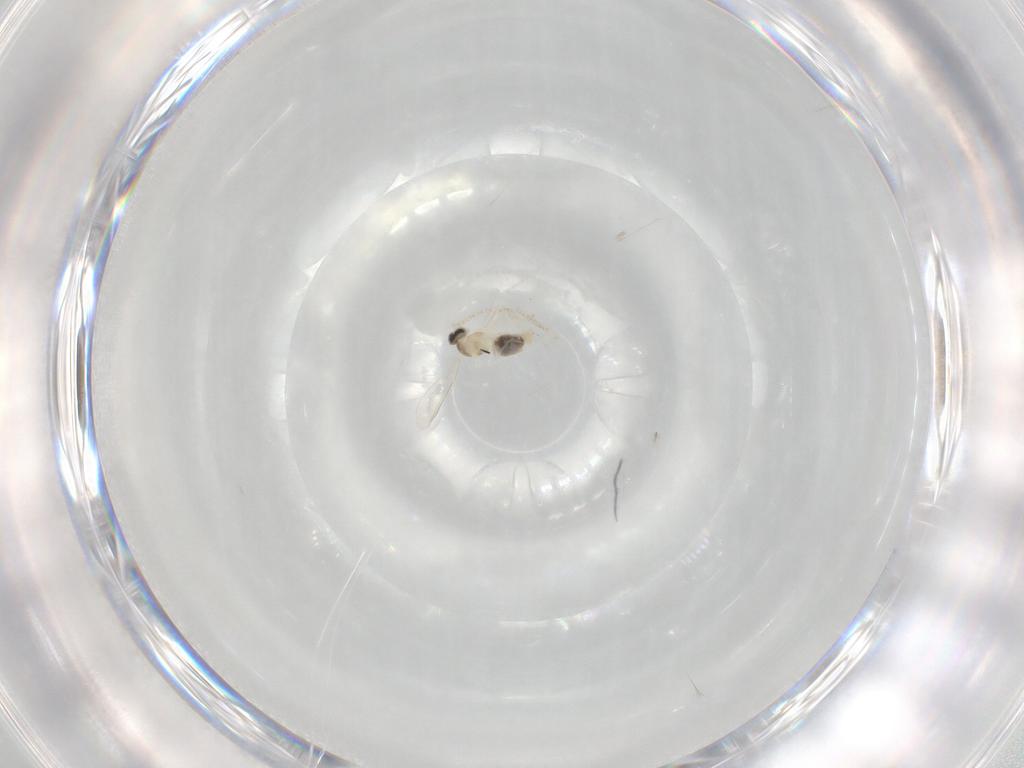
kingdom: Animalia
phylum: Arthropoda
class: Insecta
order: Diptera
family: Cecidomyiidae
